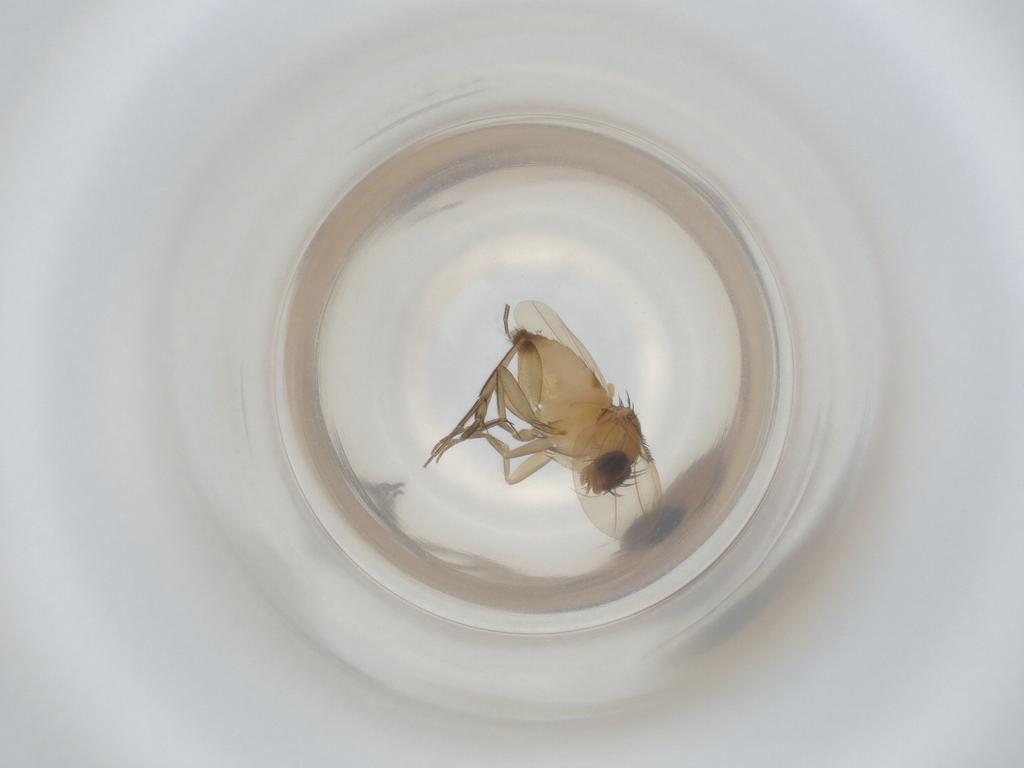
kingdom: Animalia
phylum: Arthropoda
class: Insecta
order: Diptera
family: Phoridae
